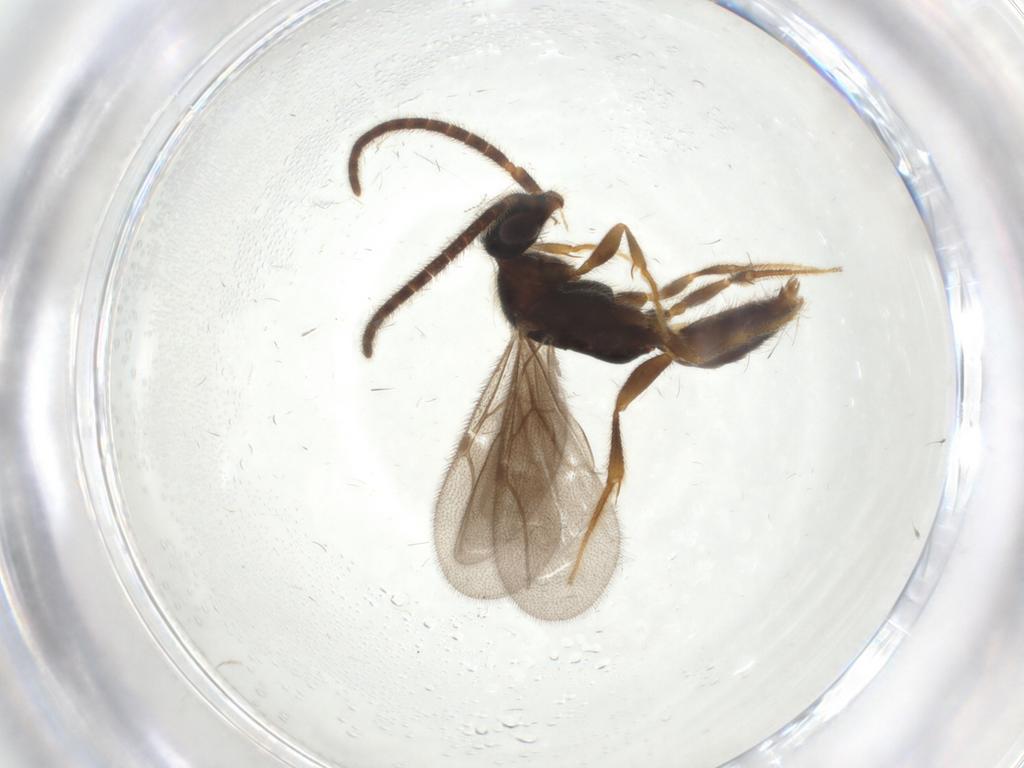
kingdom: Animalia
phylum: Arthropoda
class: Insecta
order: Hymenoptera
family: Bethylidae
